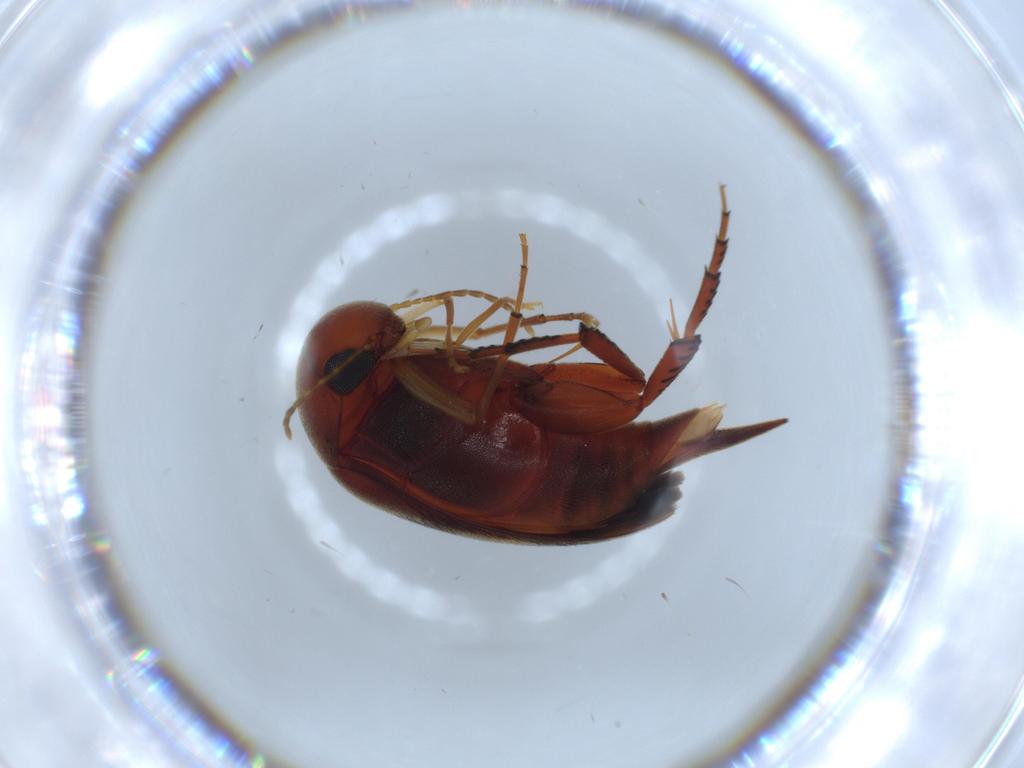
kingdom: Animalia
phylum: Arthropoda
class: Insecta
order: Coleoptera
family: Mordellidae
